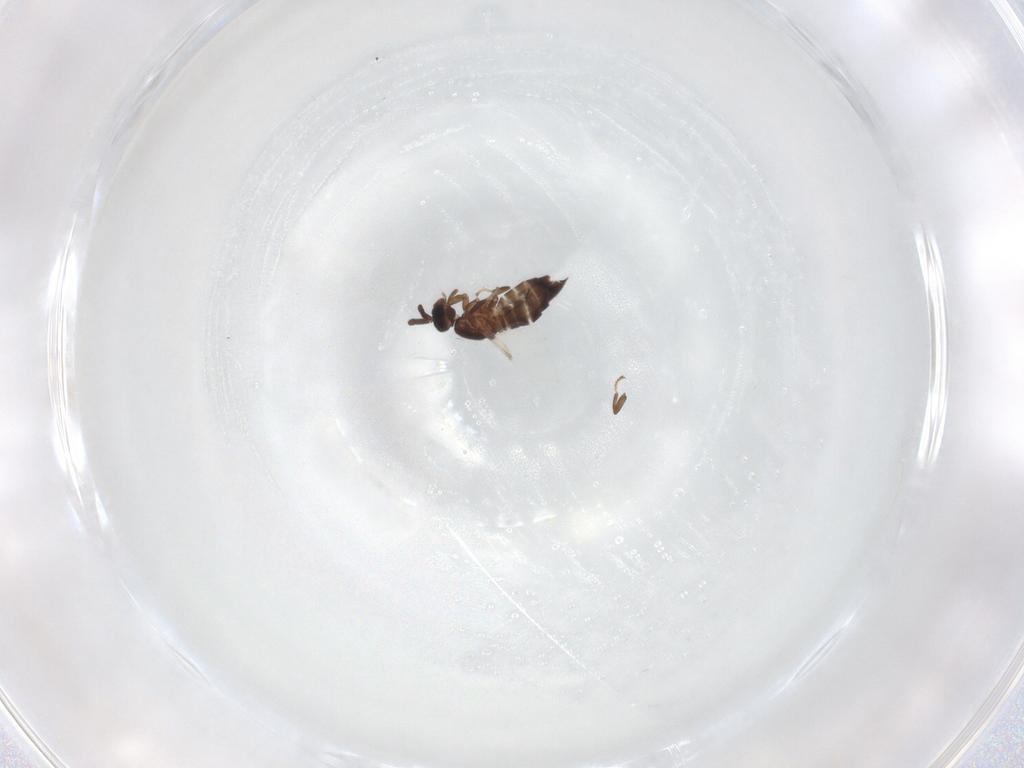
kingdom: Animalia
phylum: Arthropoda
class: Insecta
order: Diptera
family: Scatopsidae
